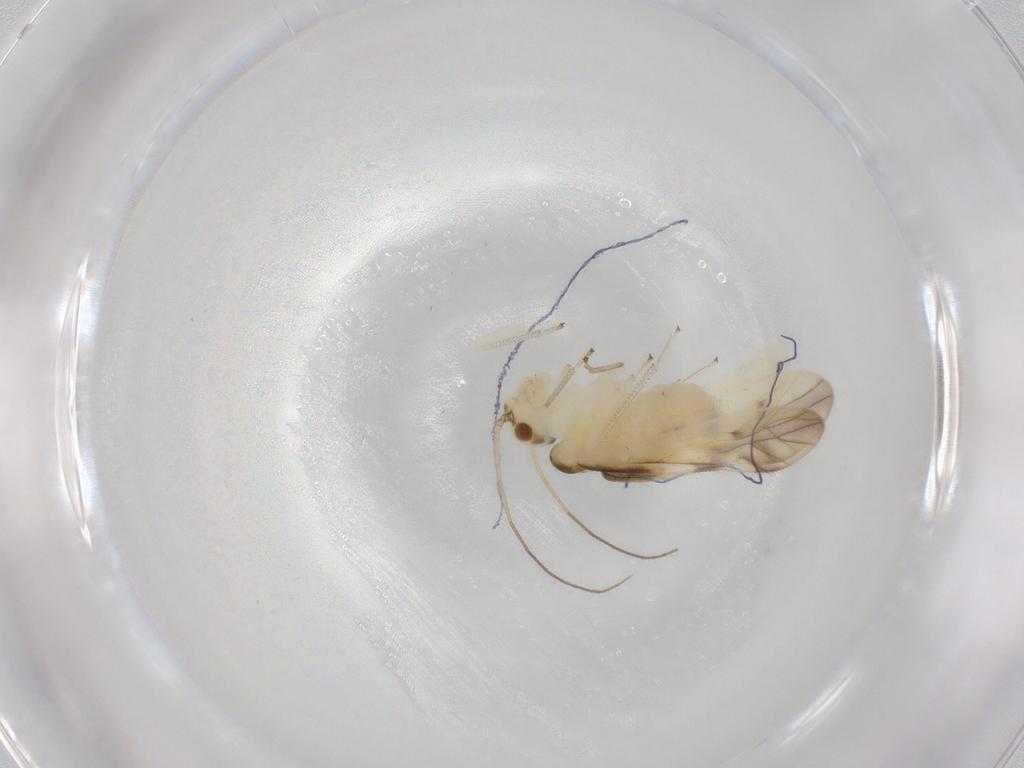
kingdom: Animalia
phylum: Arthropoda
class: Insecta
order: Psocodea
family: Caeciliusidae
